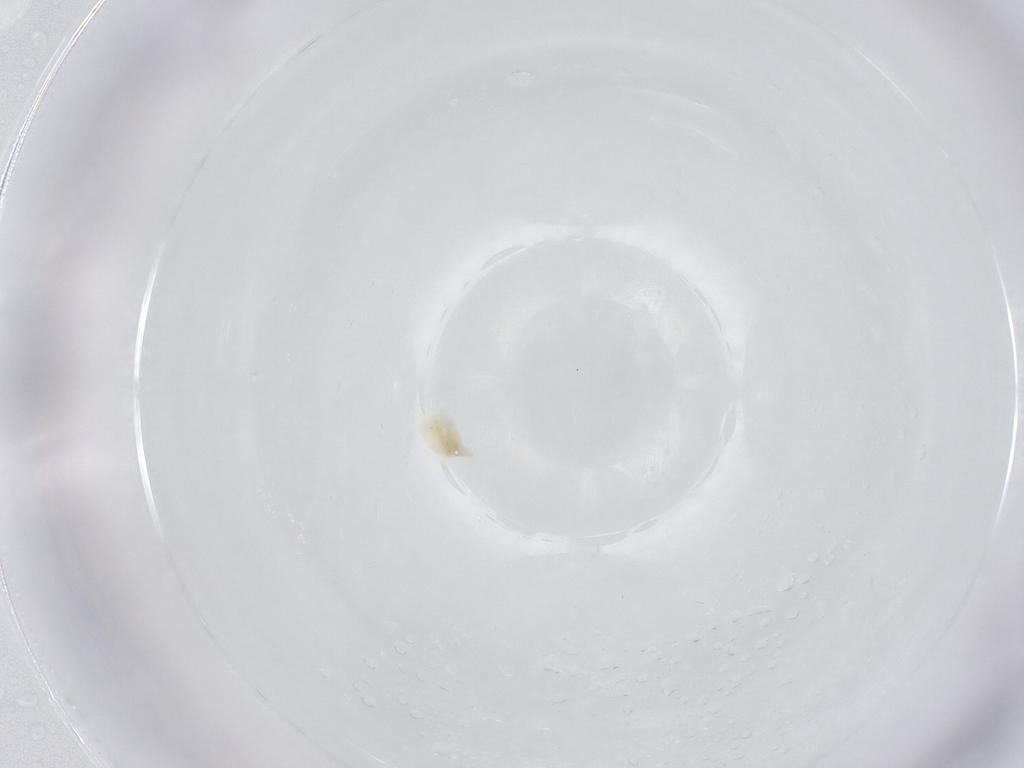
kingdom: Animalia
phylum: Arthropoda
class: Arachnida
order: Trombidiformes
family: Eupodidae
